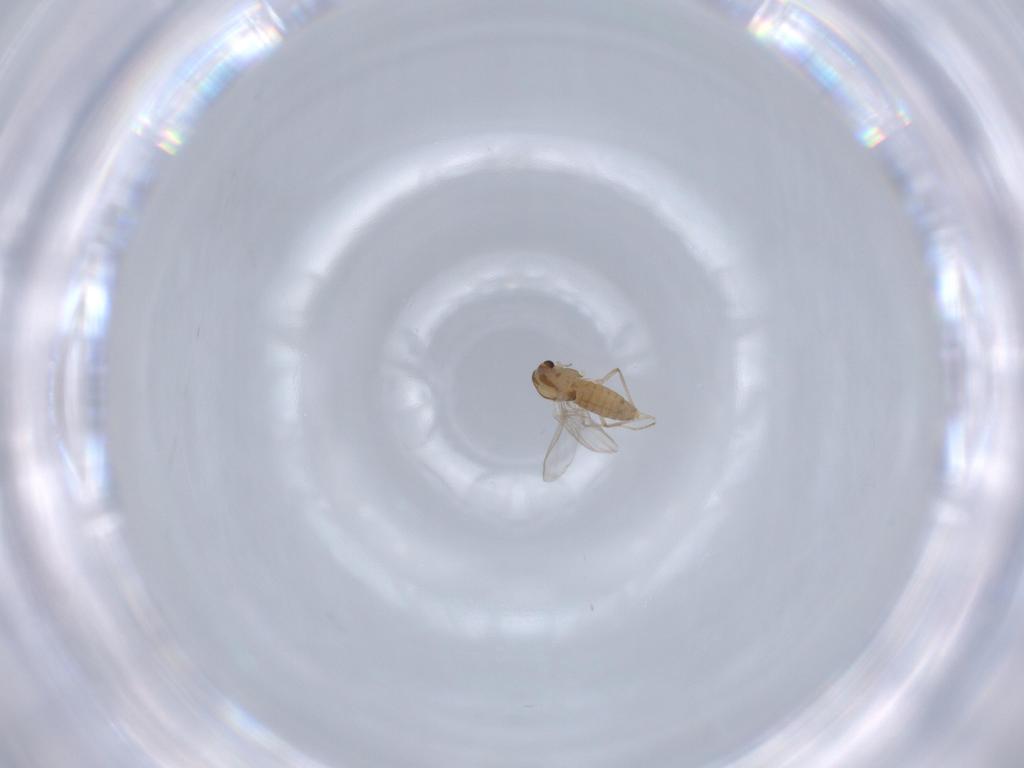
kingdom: Animalia
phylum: Arthropoda
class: Insecta
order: Diptera
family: Chironomidae
